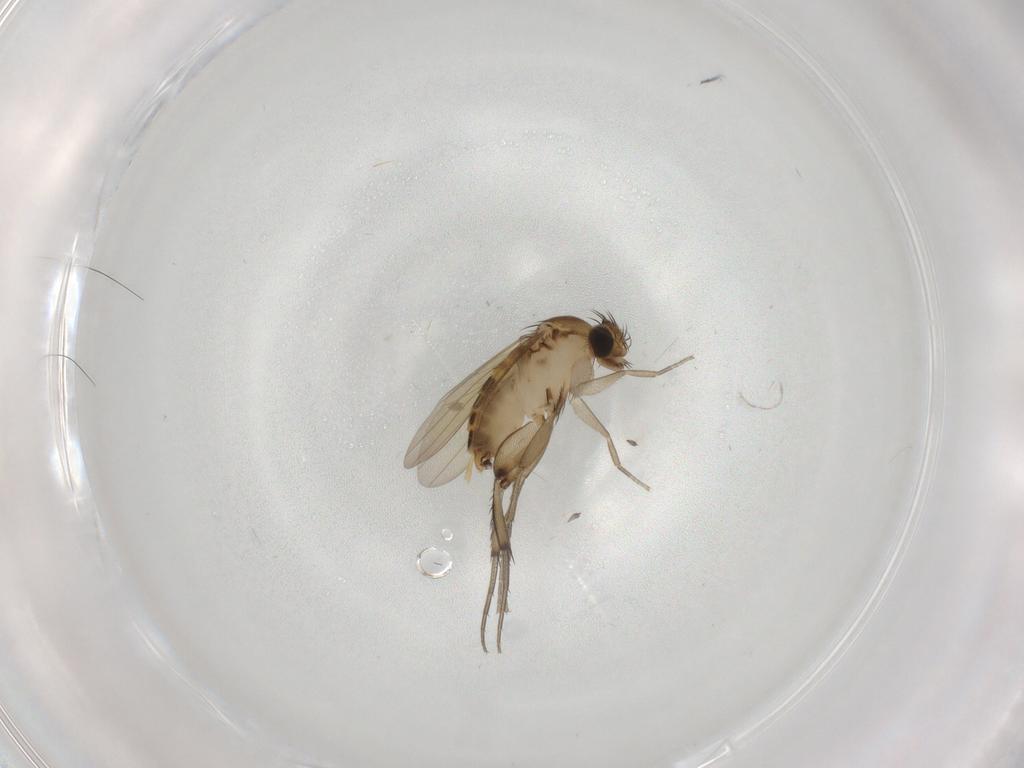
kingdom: Animalia
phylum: Arthropoda
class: Insecta
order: Diptera
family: Phoridae
